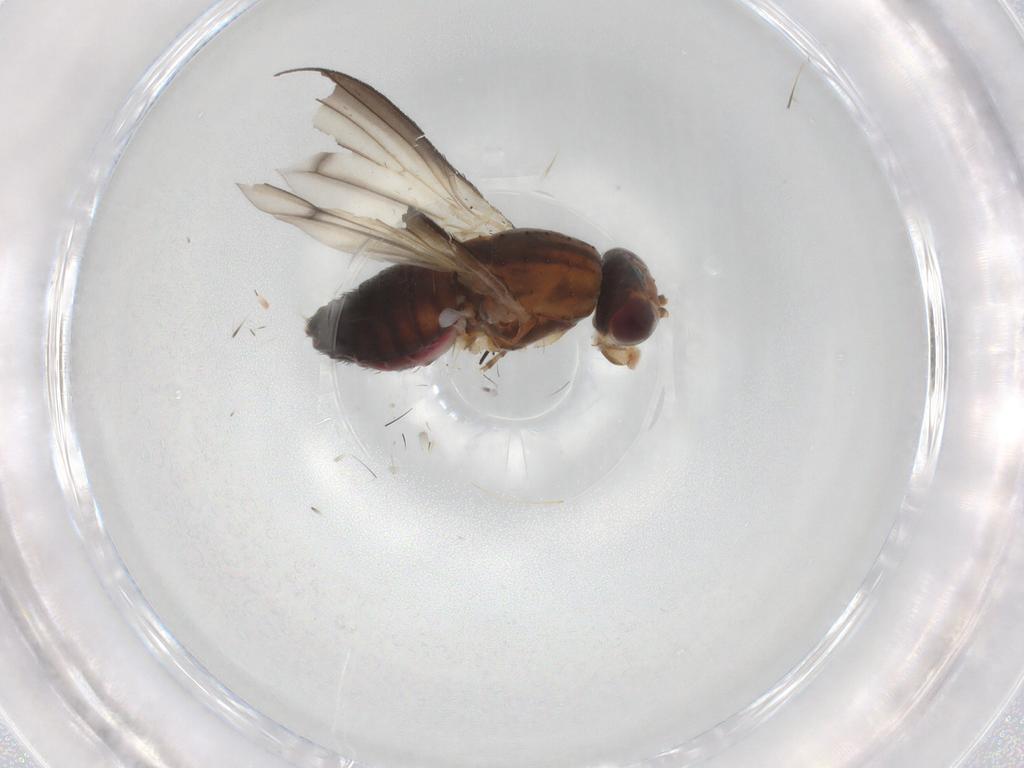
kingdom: Animalia
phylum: Arthropoda
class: Insecta
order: Diptera
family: Heleomyzidae
